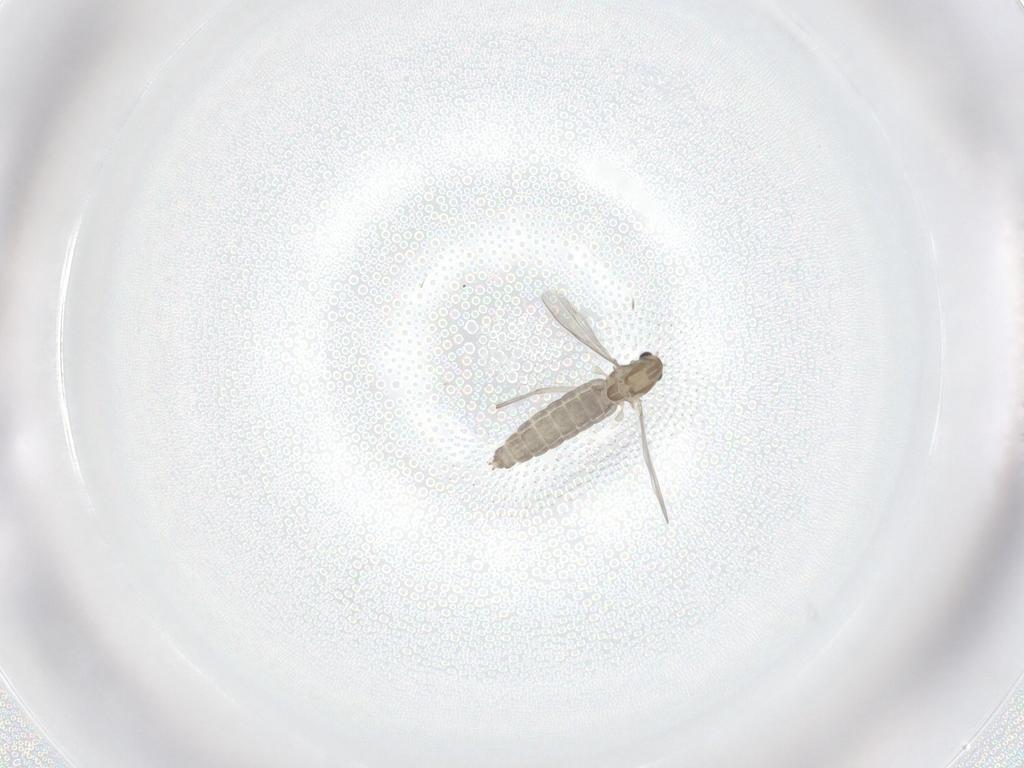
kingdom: Animalia
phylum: Arthropoda
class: Insecta
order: Diptera
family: Chironomidae
